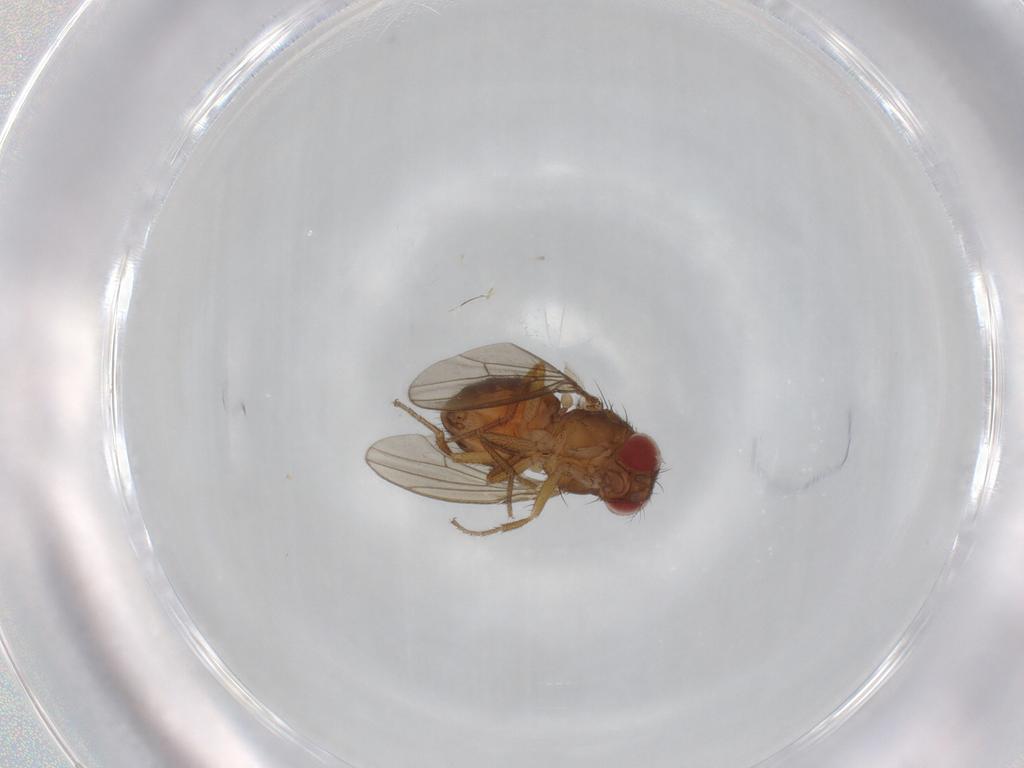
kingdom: Animalia
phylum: Arthropoda
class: Insecta
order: Diptera
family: Drosophilidae
